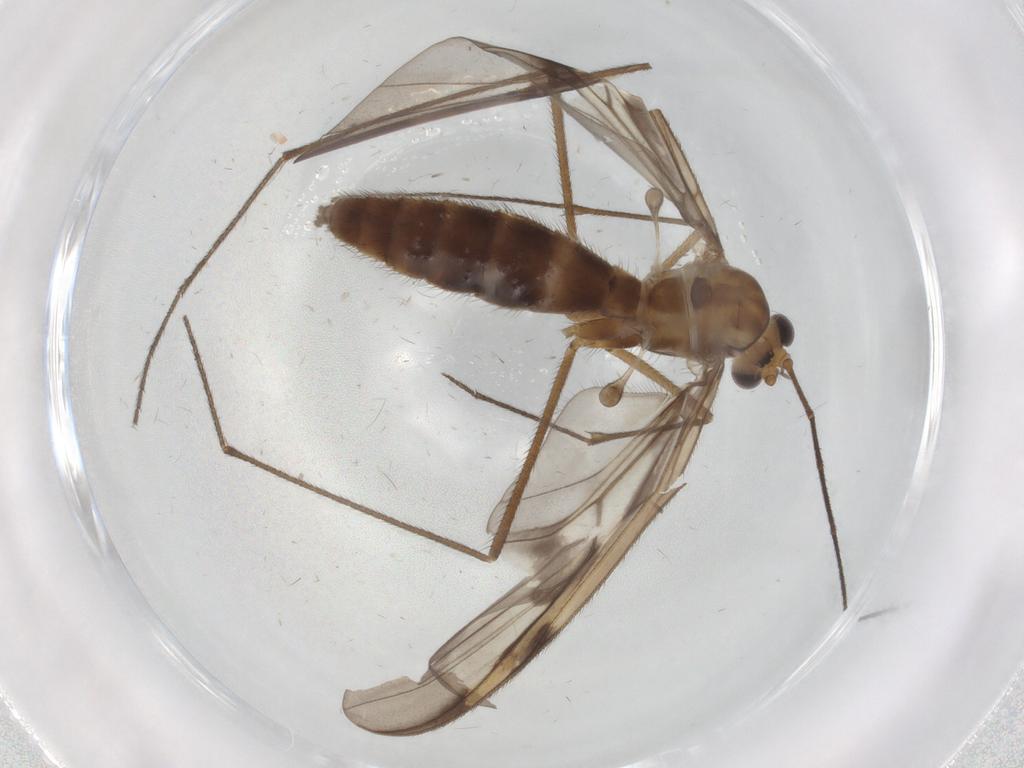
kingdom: Animalia
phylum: Arthropoda
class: Insecta
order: Diptera
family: Keroplatidae
